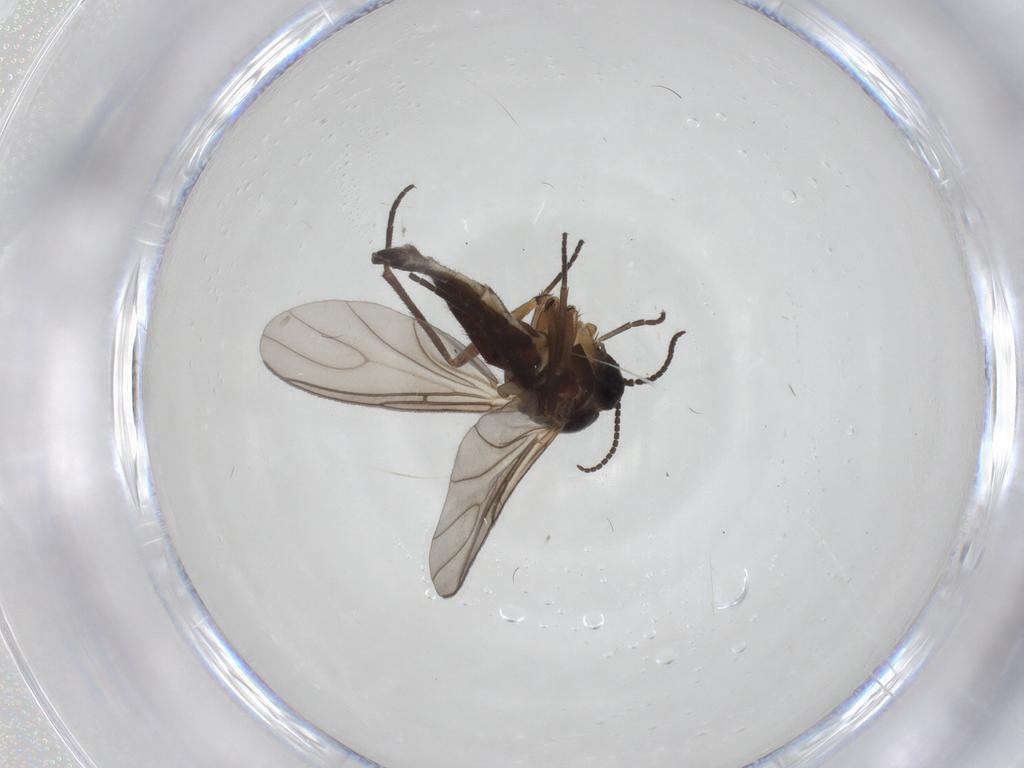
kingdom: Animalia
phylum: Arthropoda
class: Insecta
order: Diptera
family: Sciaridae
